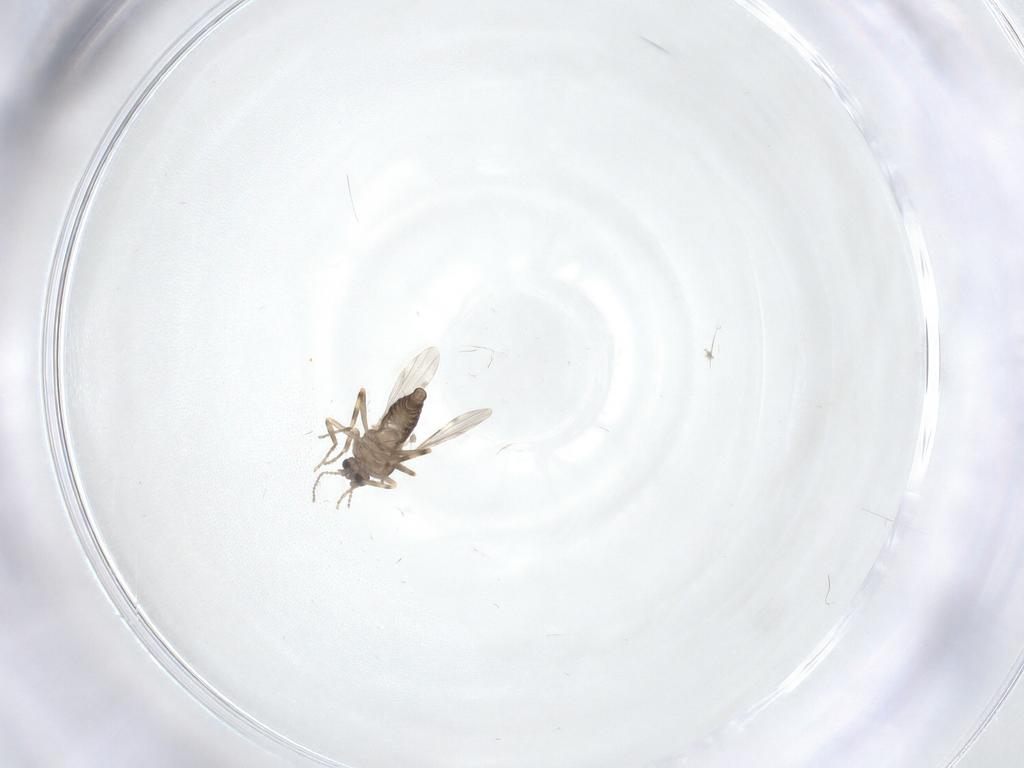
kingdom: Animalia
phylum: Arthropoda
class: Insecta
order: Diptera
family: Ceratopogonidae
